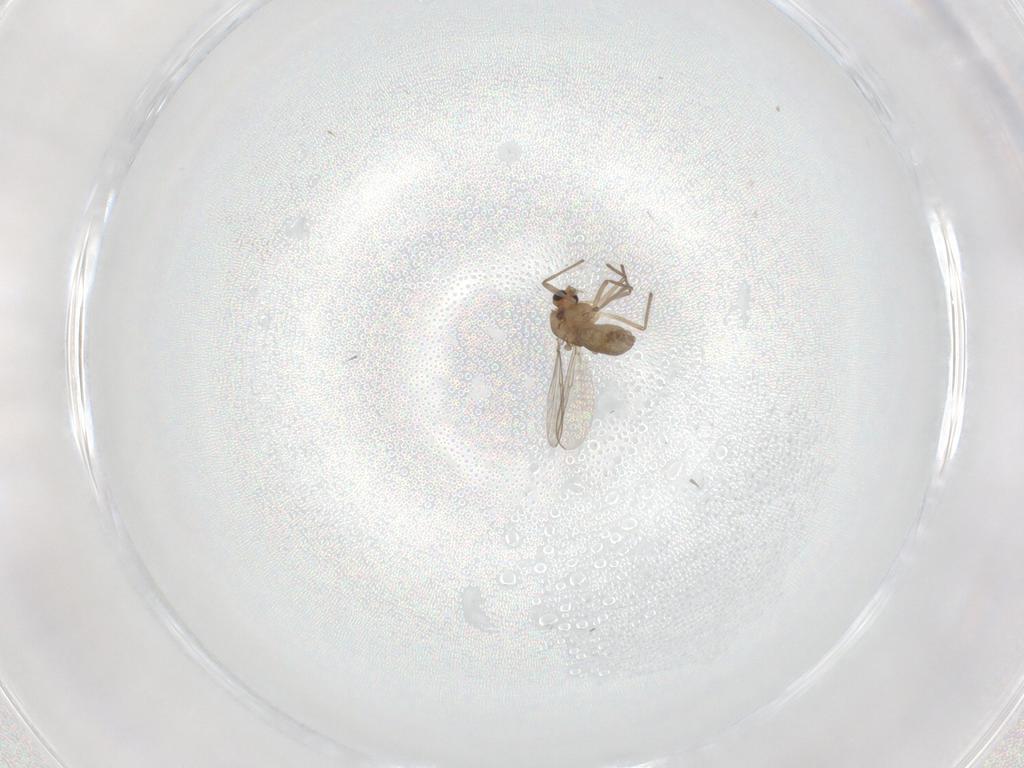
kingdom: Animalia
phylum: Arthropoda
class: Insecta
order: Diptera
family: Chironomidae
